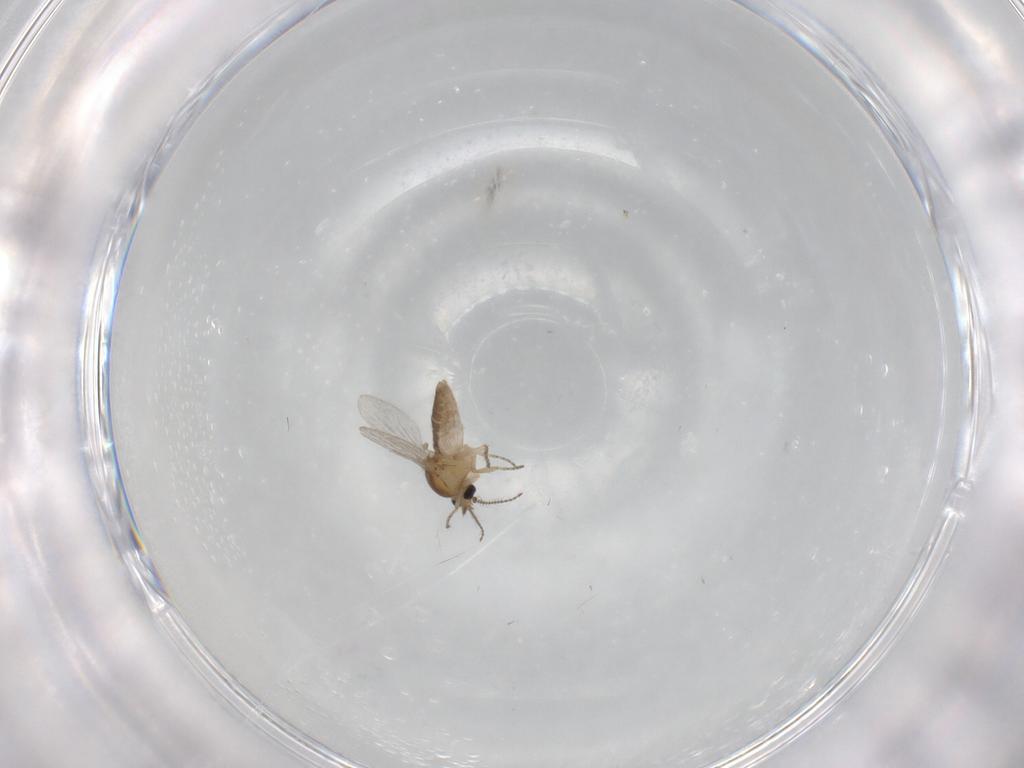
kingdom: Animalia
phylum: Arthropoda
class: Insecta
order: Diptera
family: Ceratopogonidae
